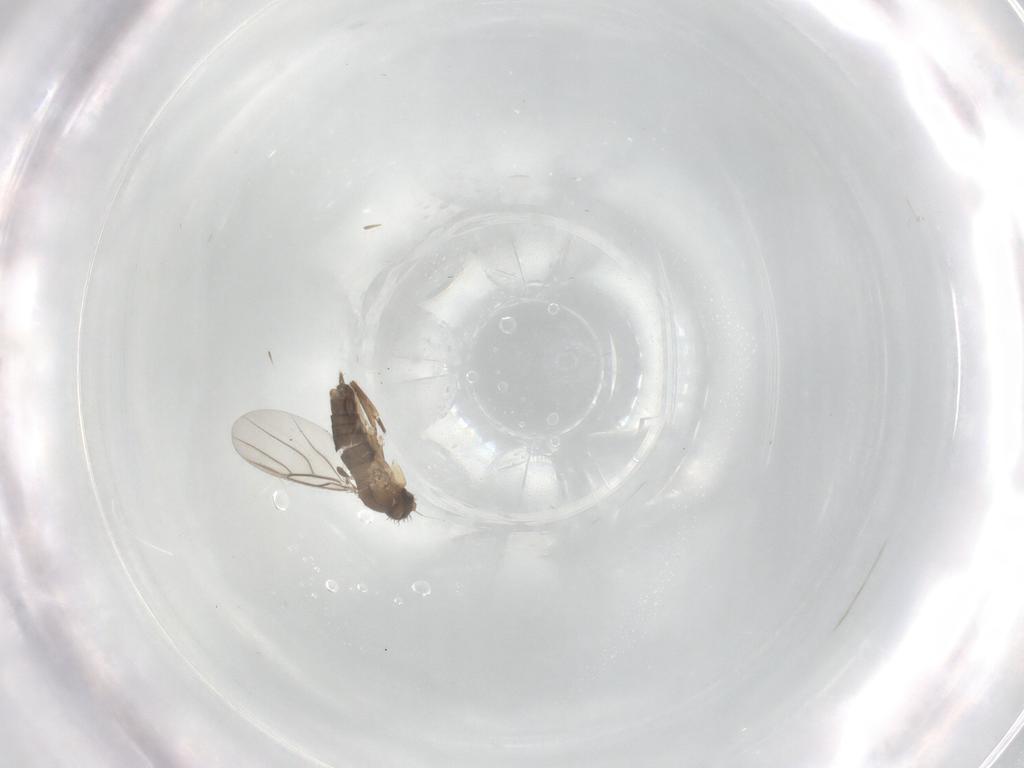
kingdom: Animalia
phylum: Arthropoda
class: Insecta
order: Diptera
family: Phoridae
